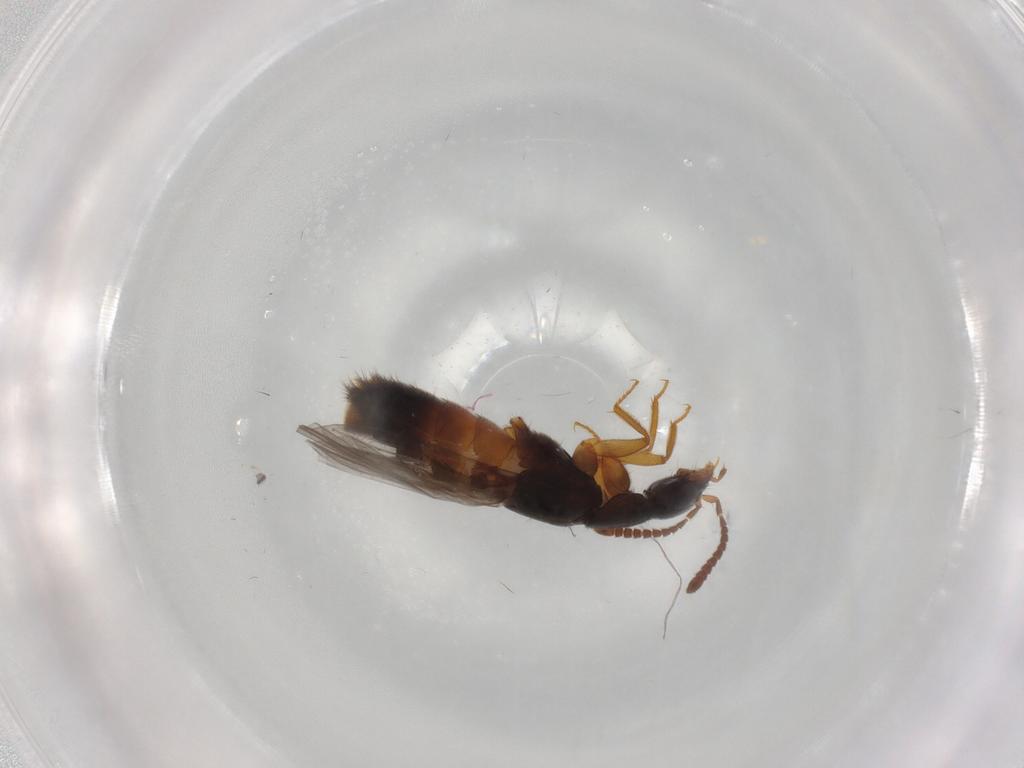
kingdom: Animalia
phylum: Arthropoda
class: Insecta
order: Coleoptera
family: Staphylinidae
